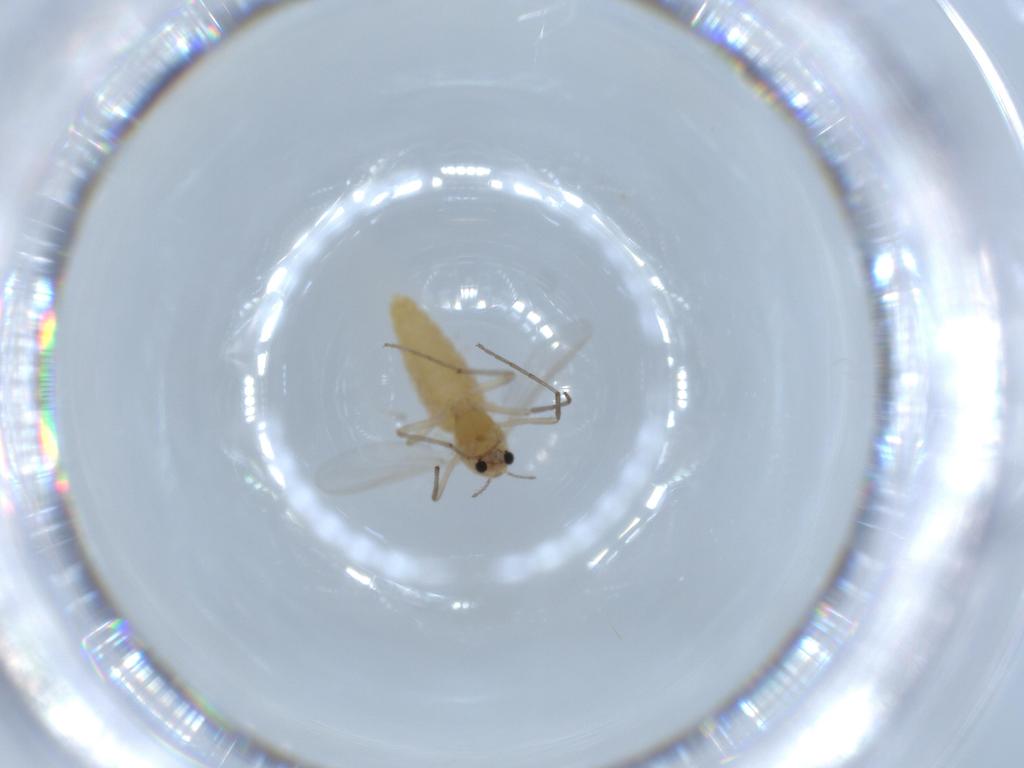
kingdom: Animalia
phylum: Arthropoda
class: Insecta
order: Diptera
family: Chironomidae
